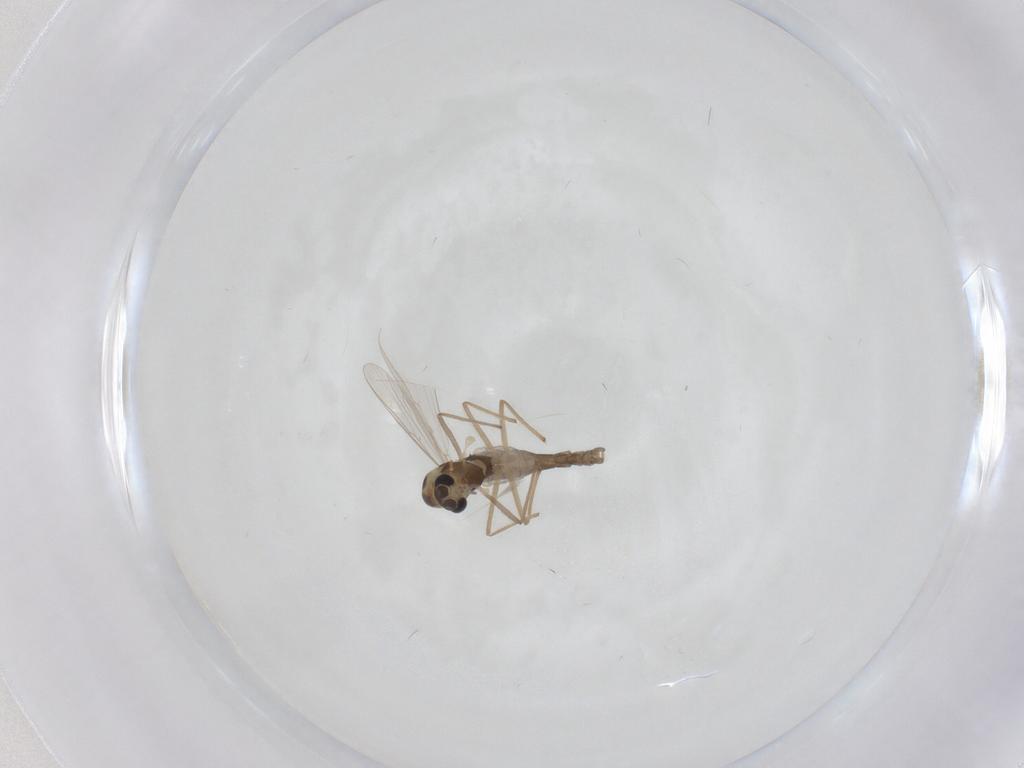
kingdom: Animalia
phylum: Arthropoda
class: Insecta
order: Diptera
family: Chironomidae
